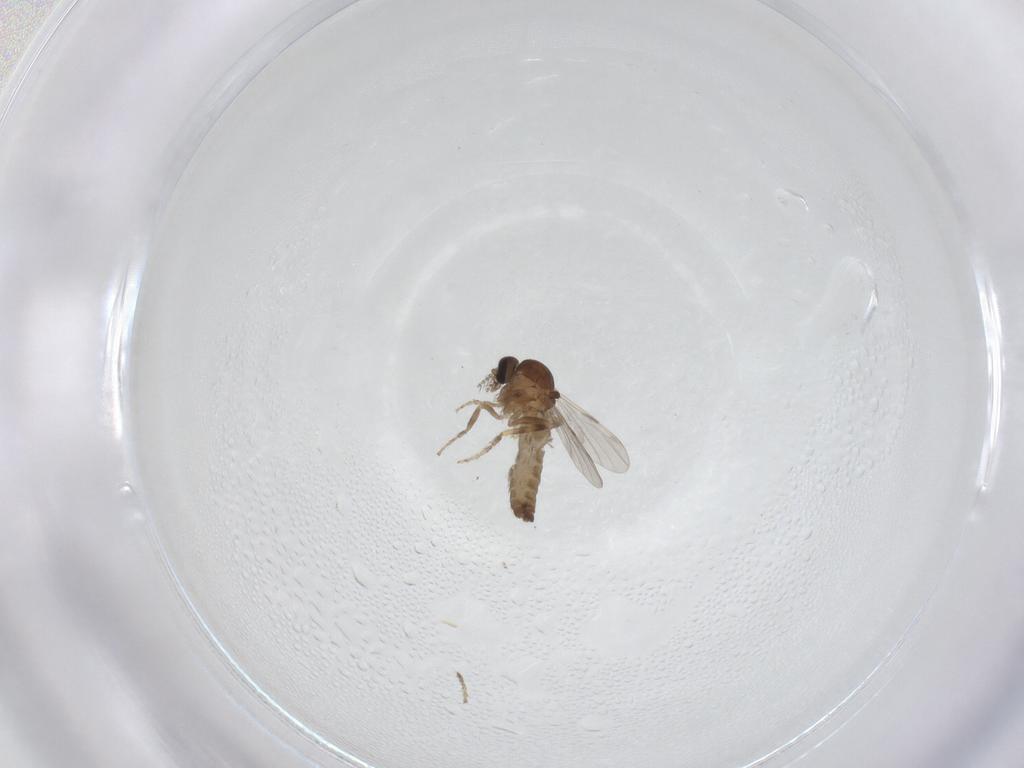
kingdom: Animalia
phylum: Arthropoda
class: Insecta
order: Diptera
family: Ceratopogonidae
